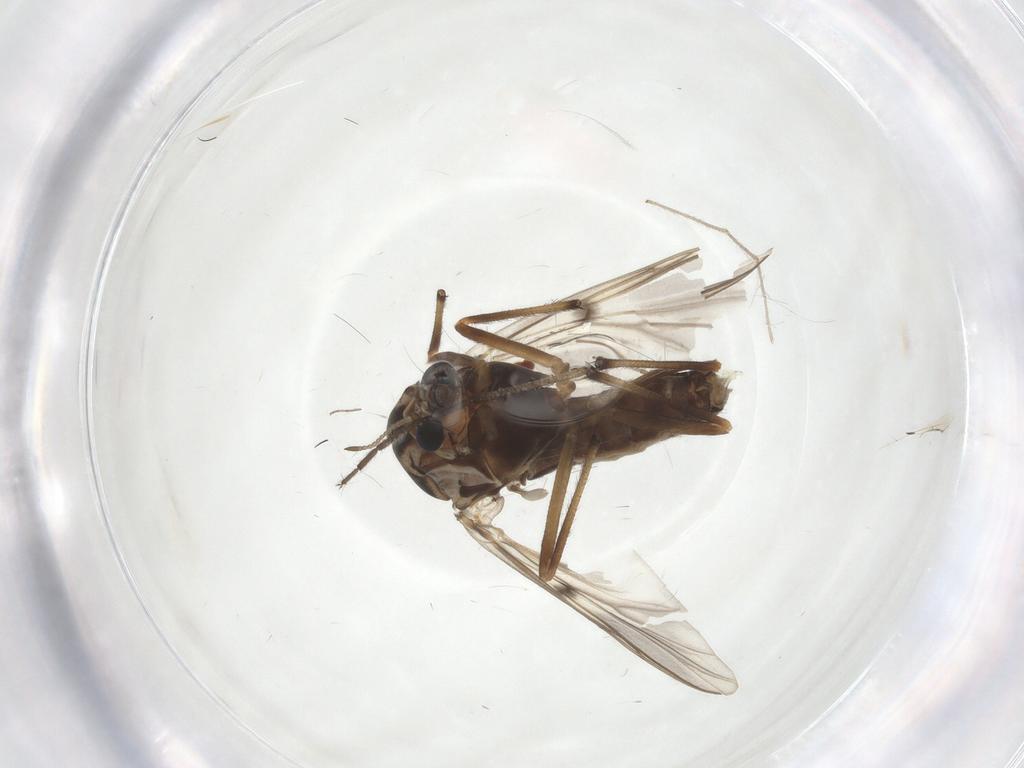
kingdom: Animalia
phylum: Arthropoda
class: Insecta
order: Diptera
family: Chironomidae
